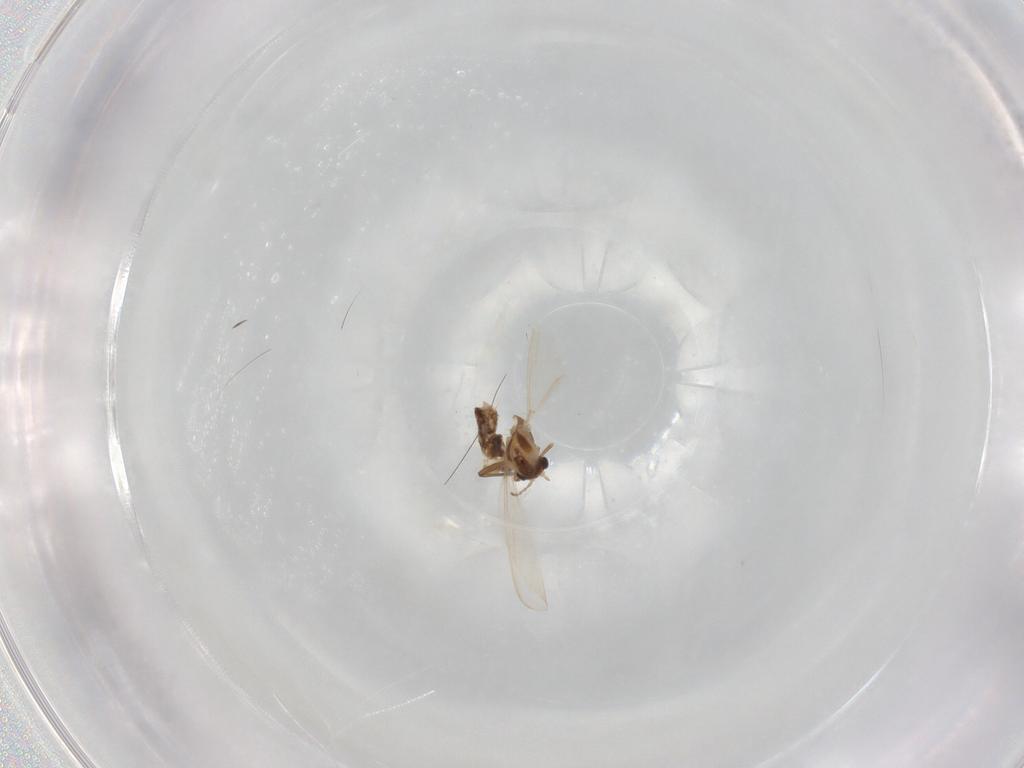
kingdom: Animalia
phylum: Arthropoda
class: Insecta
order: Diptera
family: Chironomidae
